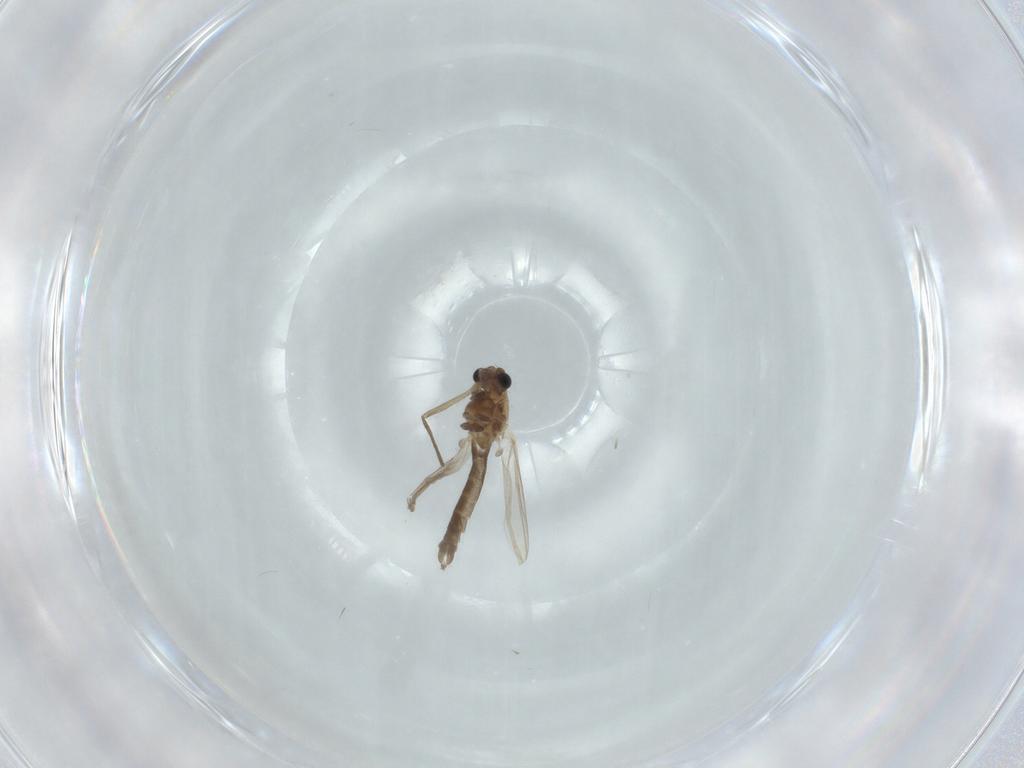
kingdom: Animalia
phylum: Arthropoda
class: Insecta
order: Diptera
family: Chironomidae
